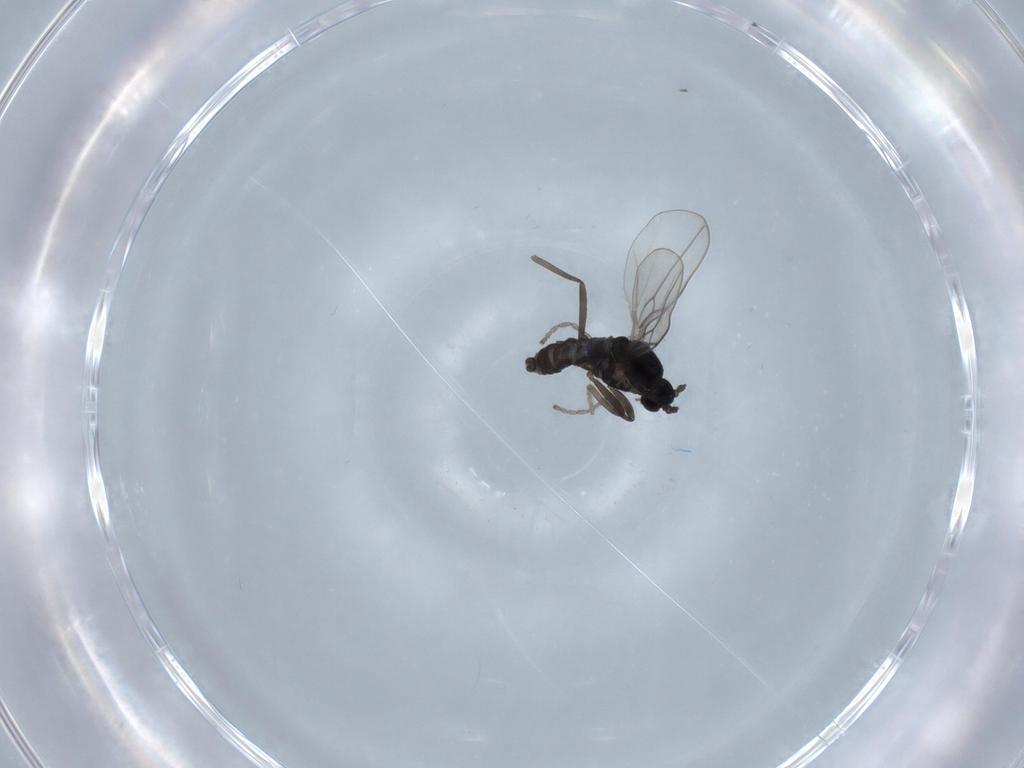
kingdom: Animalia
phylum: Arthropoda
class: Insecta
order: Diptera
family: Cecidomyiidae
